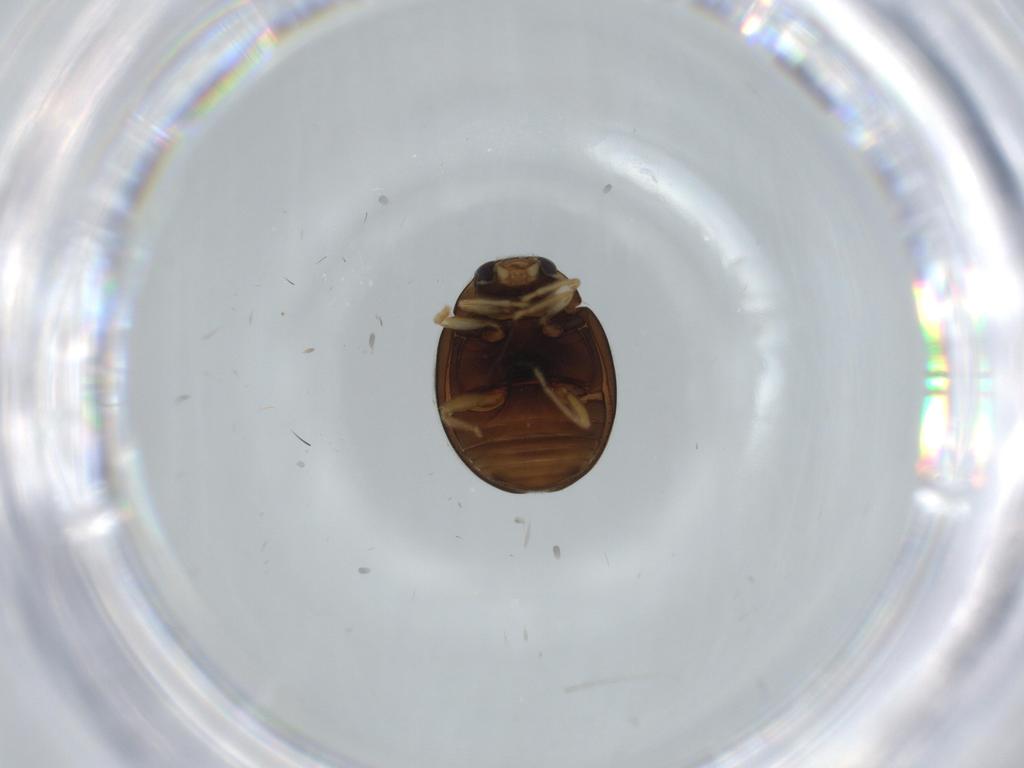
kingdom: Animalia
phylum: Arthropoda
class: Insecta
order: Coleoptera
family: Coccinellidae
